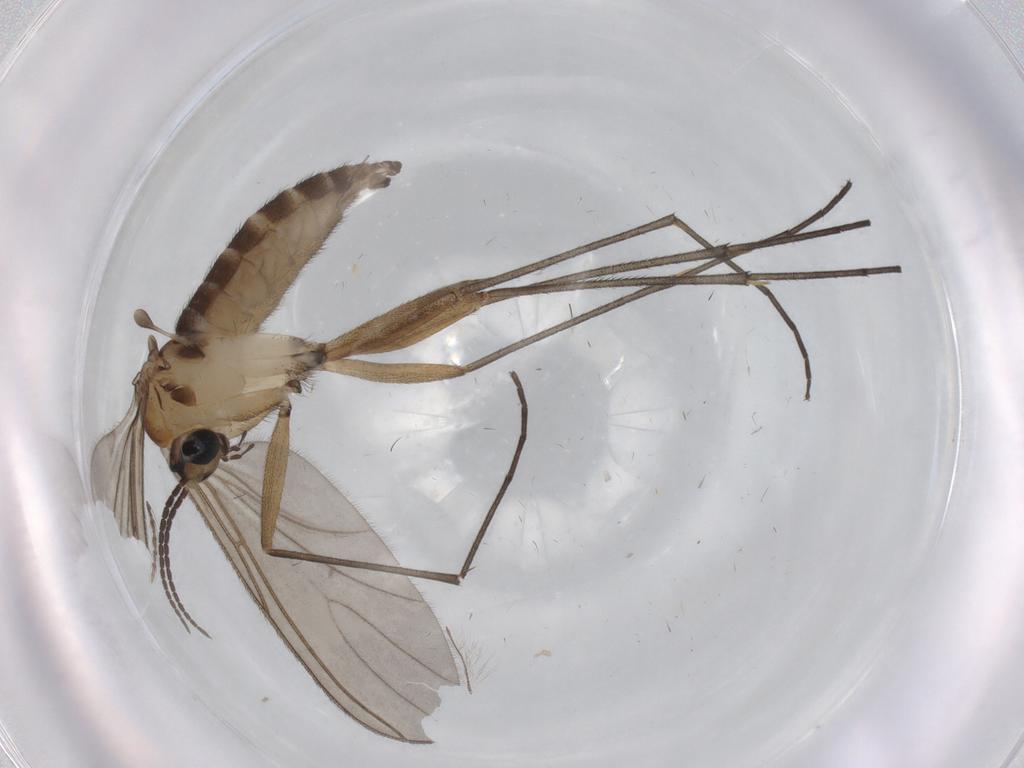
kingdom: Animalia
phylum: Arthropoda
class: Insecta
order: Diptera
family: Sciaridae
